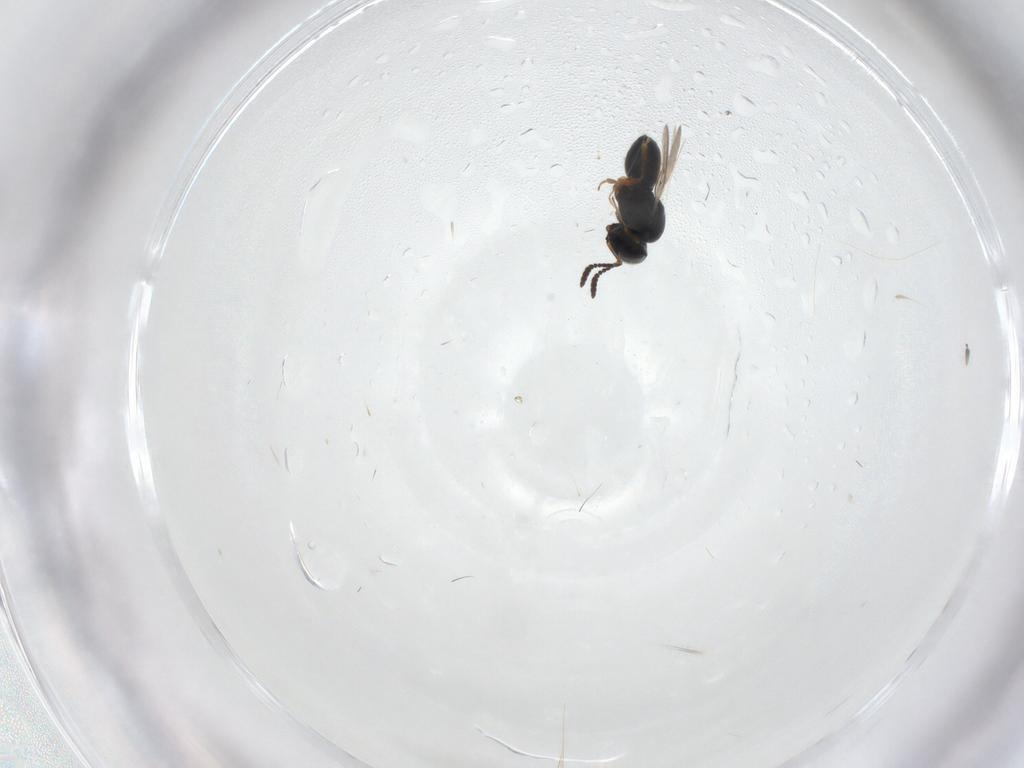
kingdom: Animalia
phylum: Arthropoda
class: Insecta
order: Hymenoptera
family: Scelionidae
